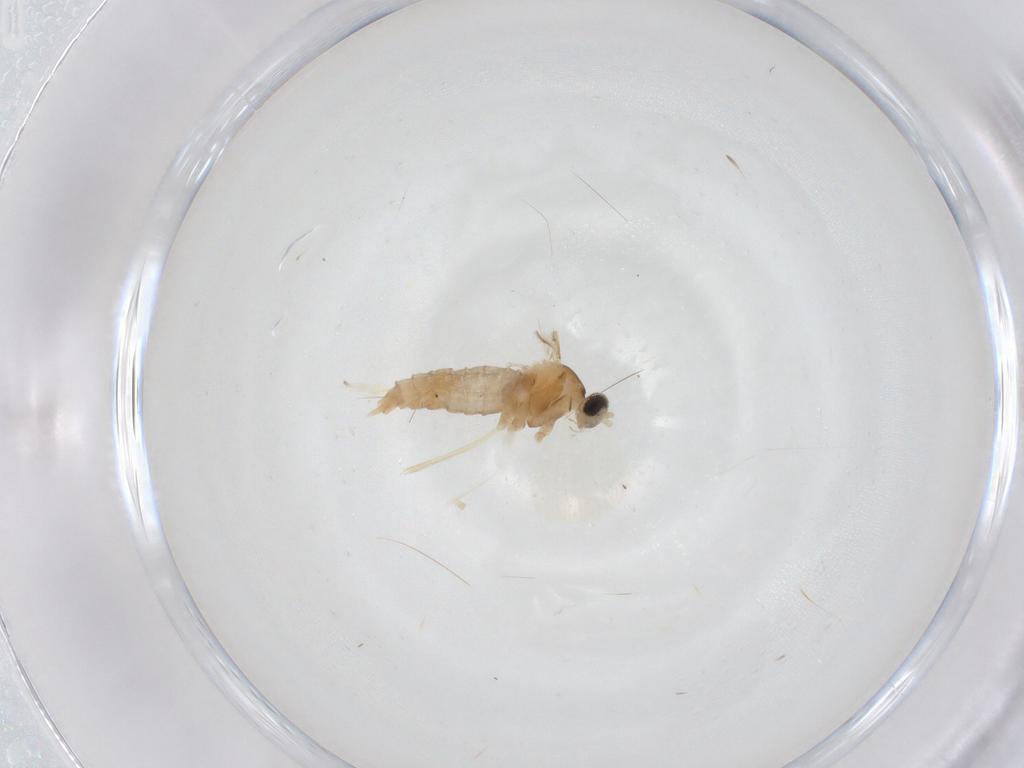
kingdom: Animalia
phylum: Arthropoda
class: Insecta
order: Diptera
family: Cecidomyiidae
